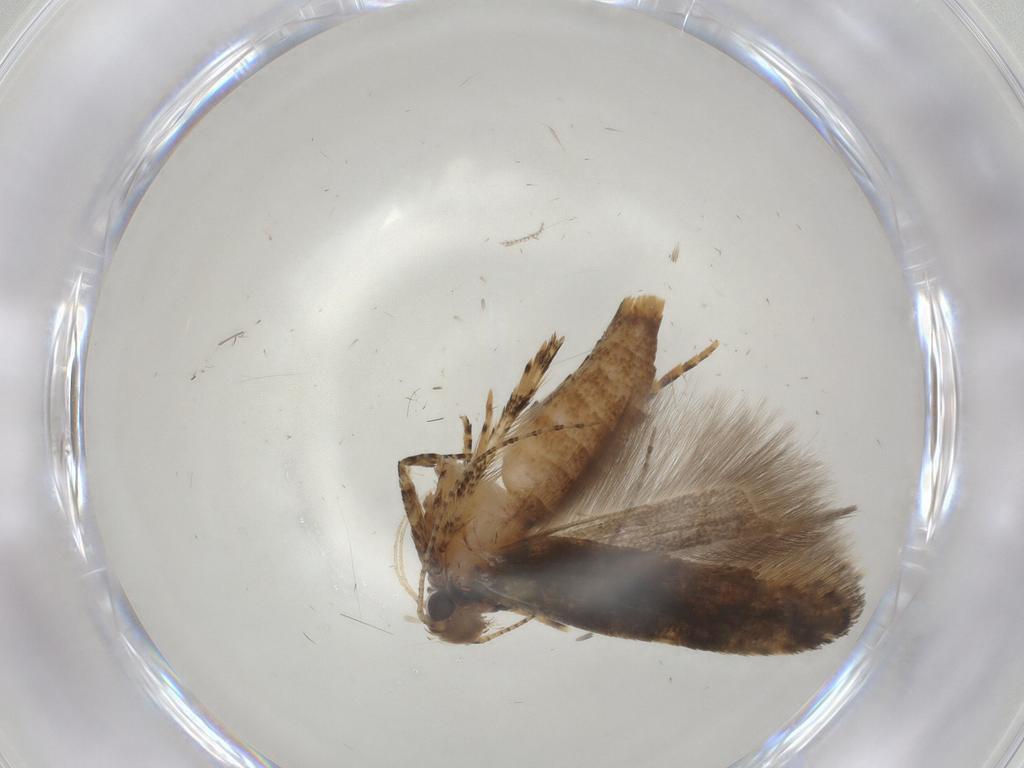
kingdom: Animalia
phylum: Arthropoda
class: Insecta
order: Lepidoptera
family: Gelechiidae
